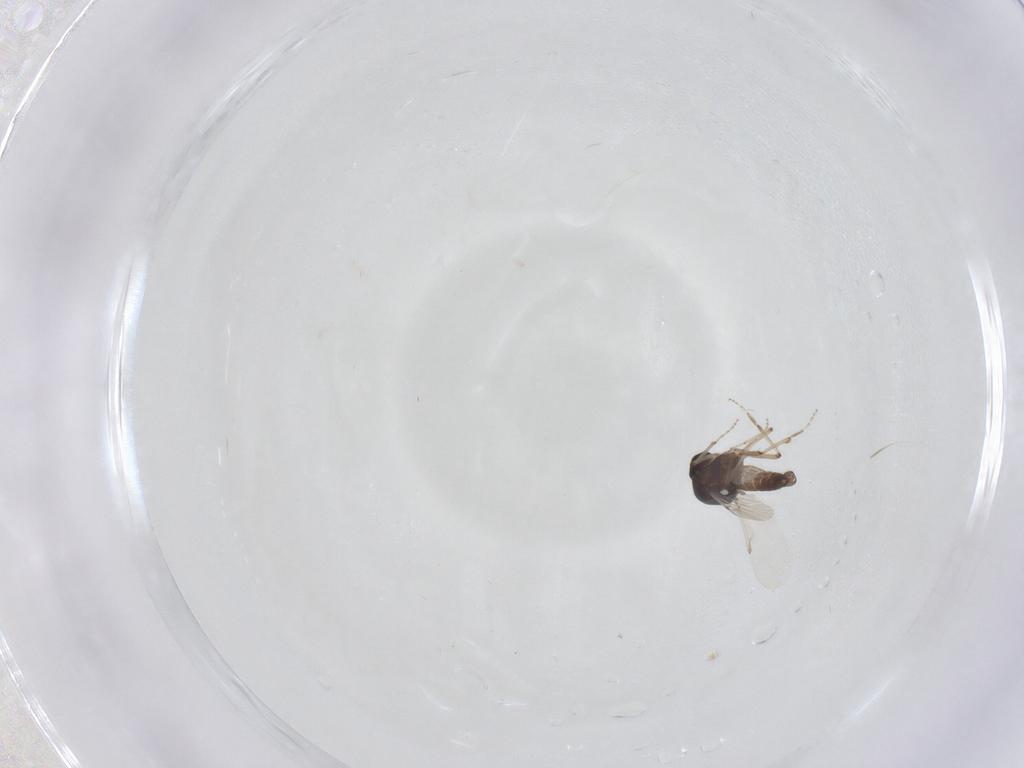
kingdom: Animalia
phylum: Arthropoda
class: Insecta
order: Diptera
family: Ceratopogonidae
